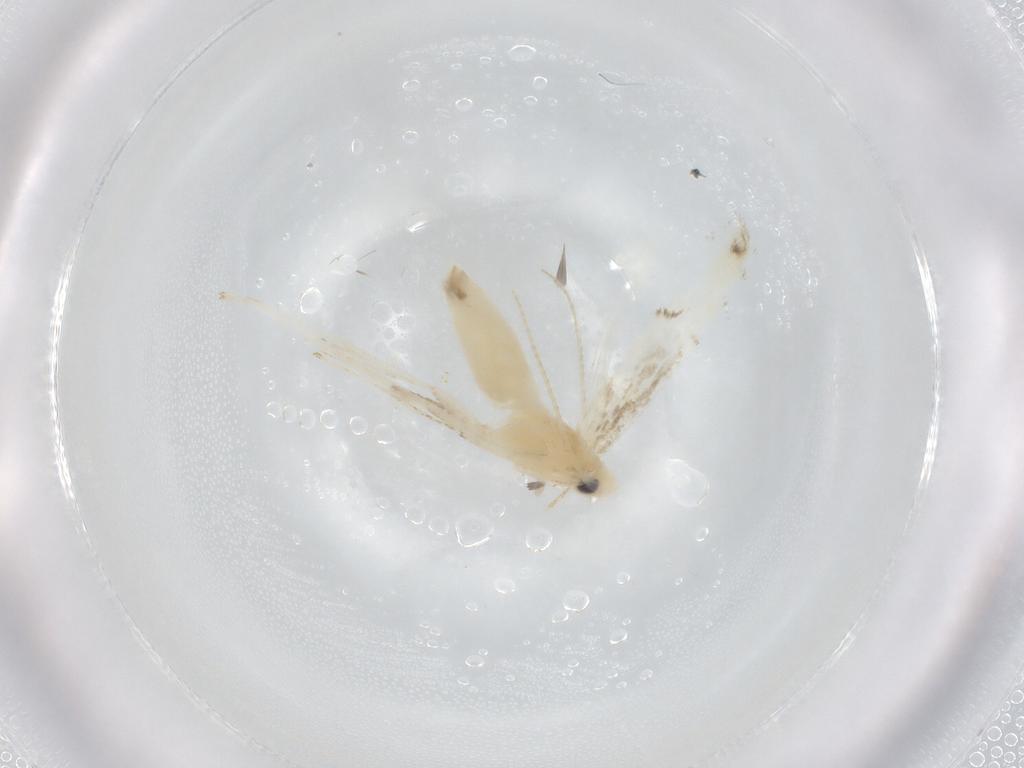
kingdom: Animalia
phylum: Arthropoda
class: Insecta
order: Lepidoptera
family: Gracillariidae
